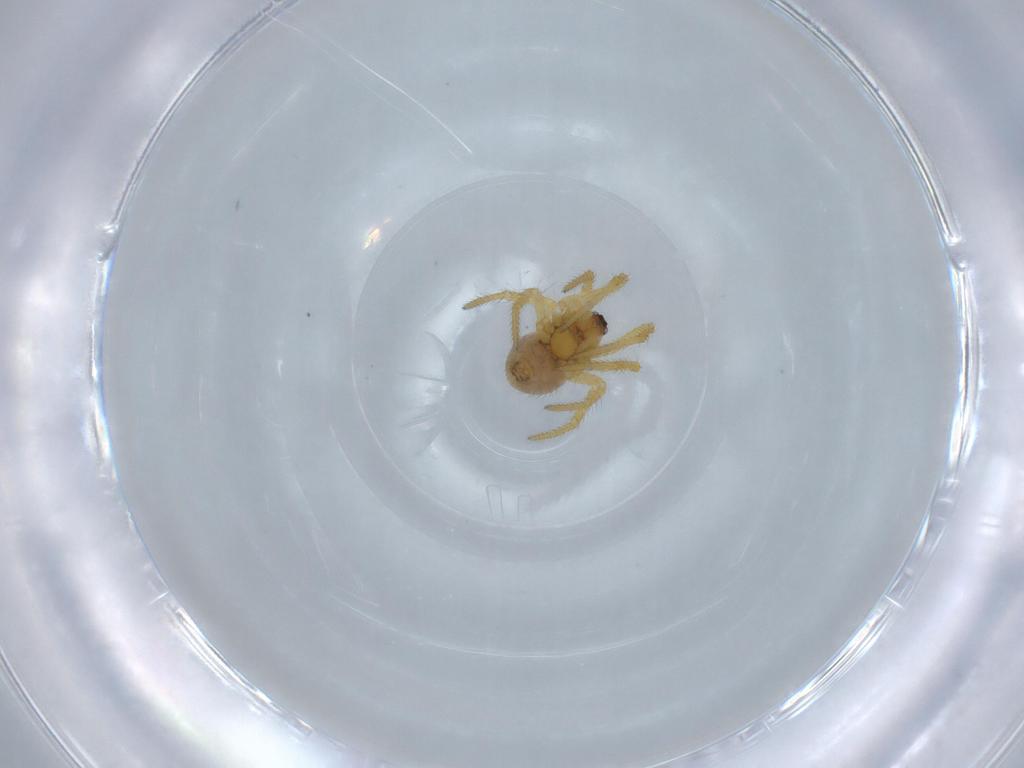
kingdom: Animalia
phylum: Arthropoda
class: Arachnida
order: Araneae
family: Theridiidae
